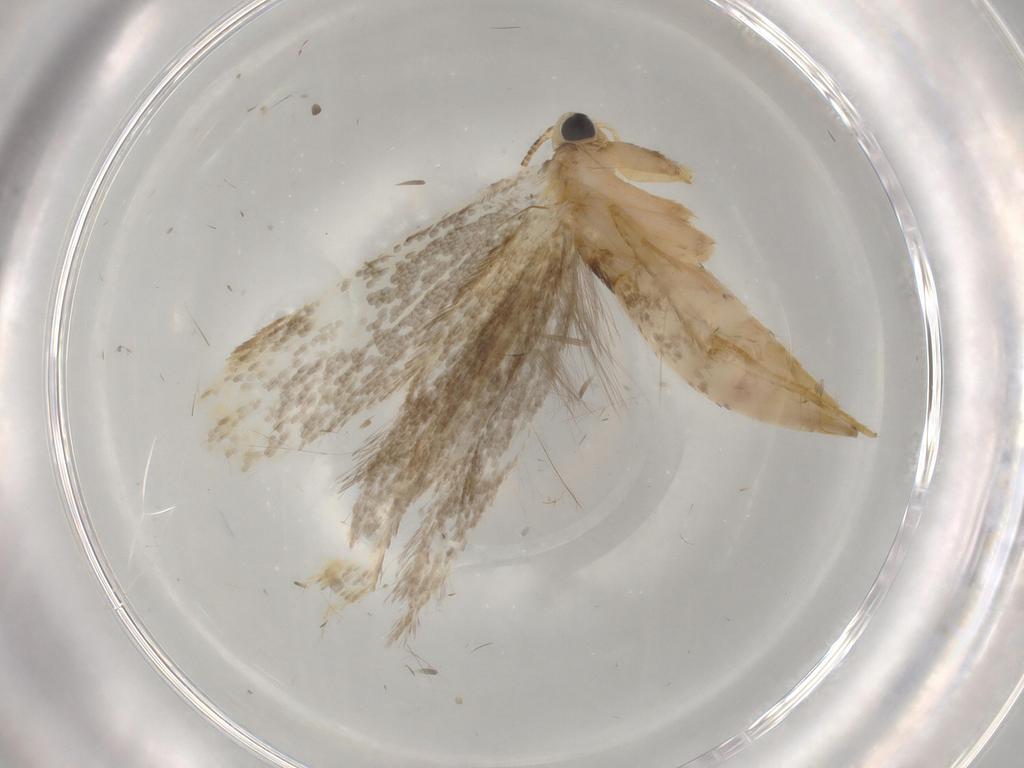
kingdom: Animalia
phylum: Arthropoda
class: Insecta
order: Lepidoptera
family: Tineidae
